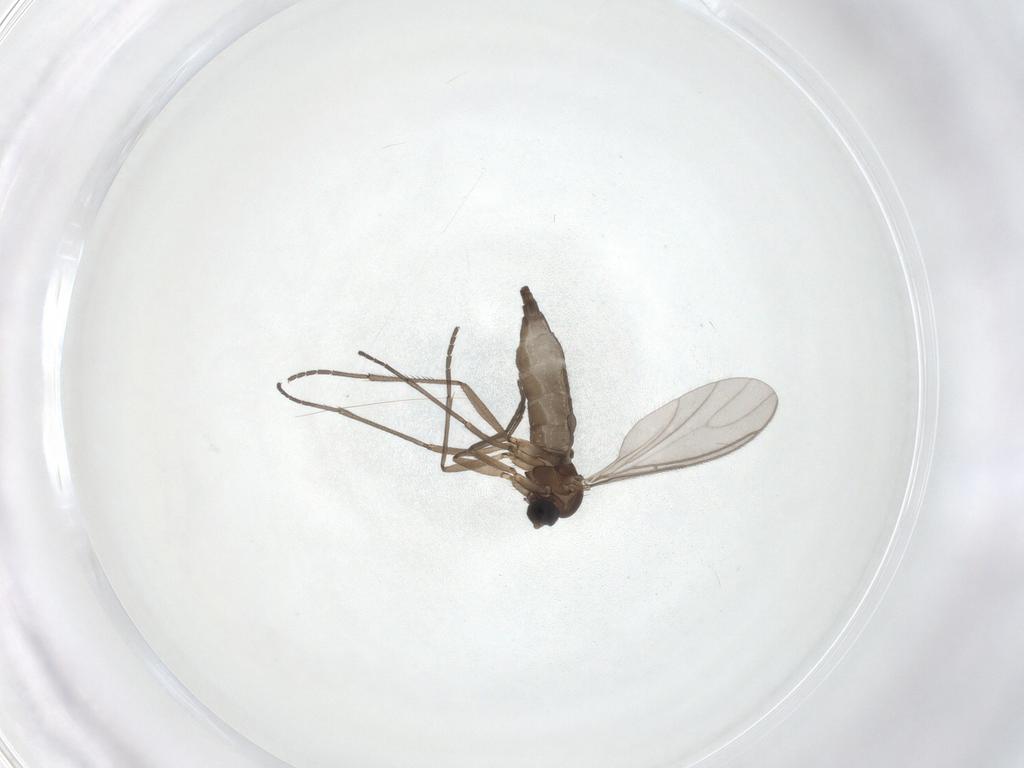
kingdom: Animalia
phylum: Arthropoda
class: Insecta
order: Diptera
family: Sciaridae
